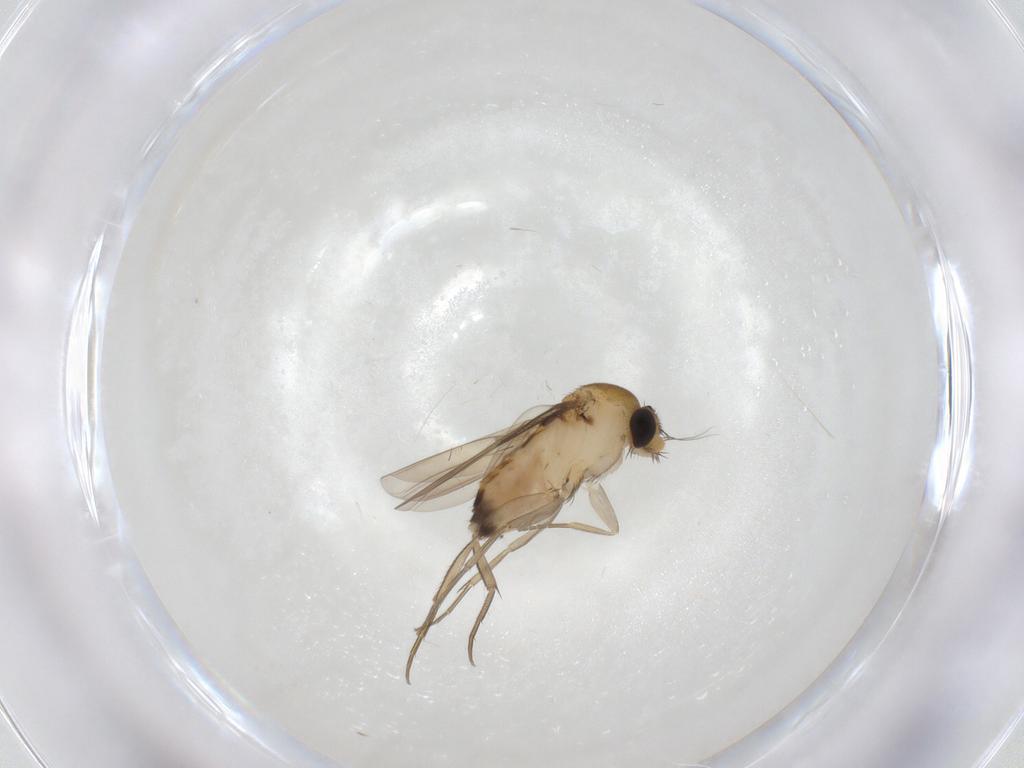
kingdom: Animalia
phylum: Arthropoda
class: Insecta
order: Diptera
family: Phoridae
